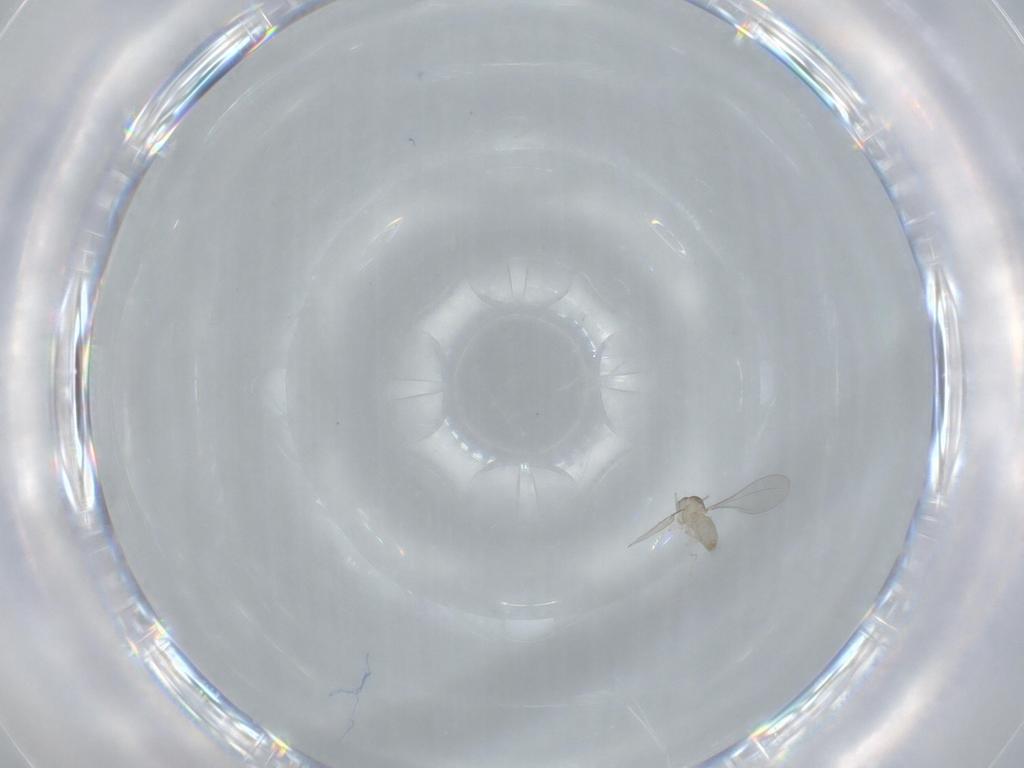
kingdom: Animalia
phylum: Arthropoda
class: Insecta
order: Diptera
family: Cecidomyiidae
